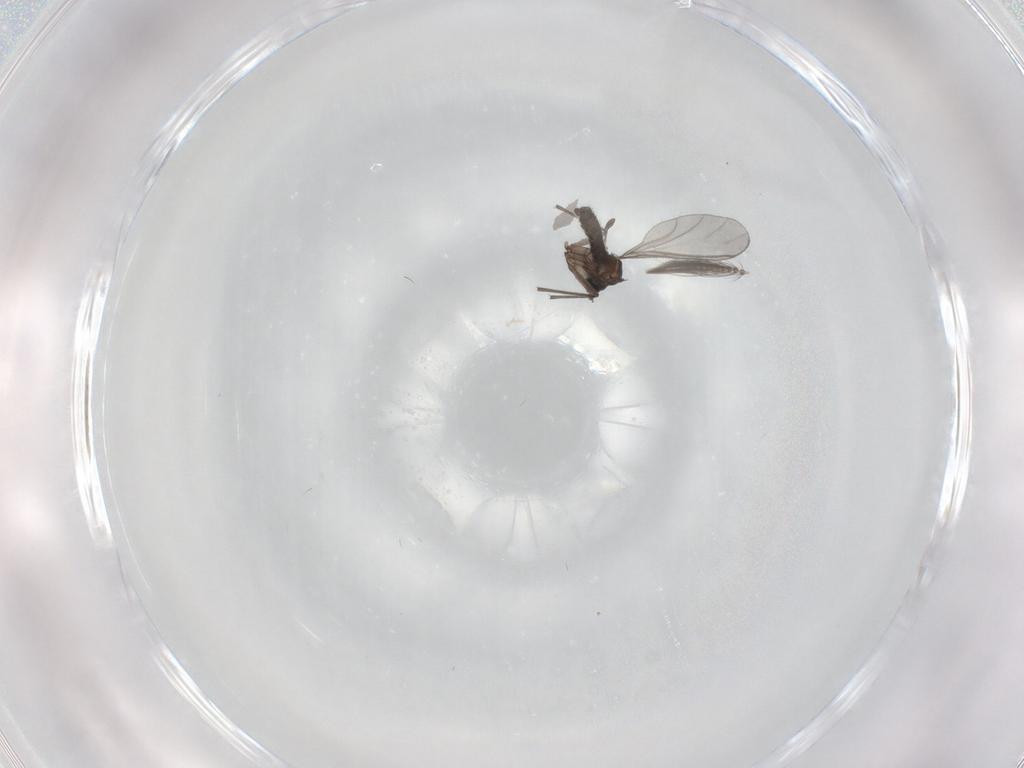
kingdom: Animalia
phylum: Arthropoda
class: Insecta
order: Diptera
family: Ceratopogonidae
